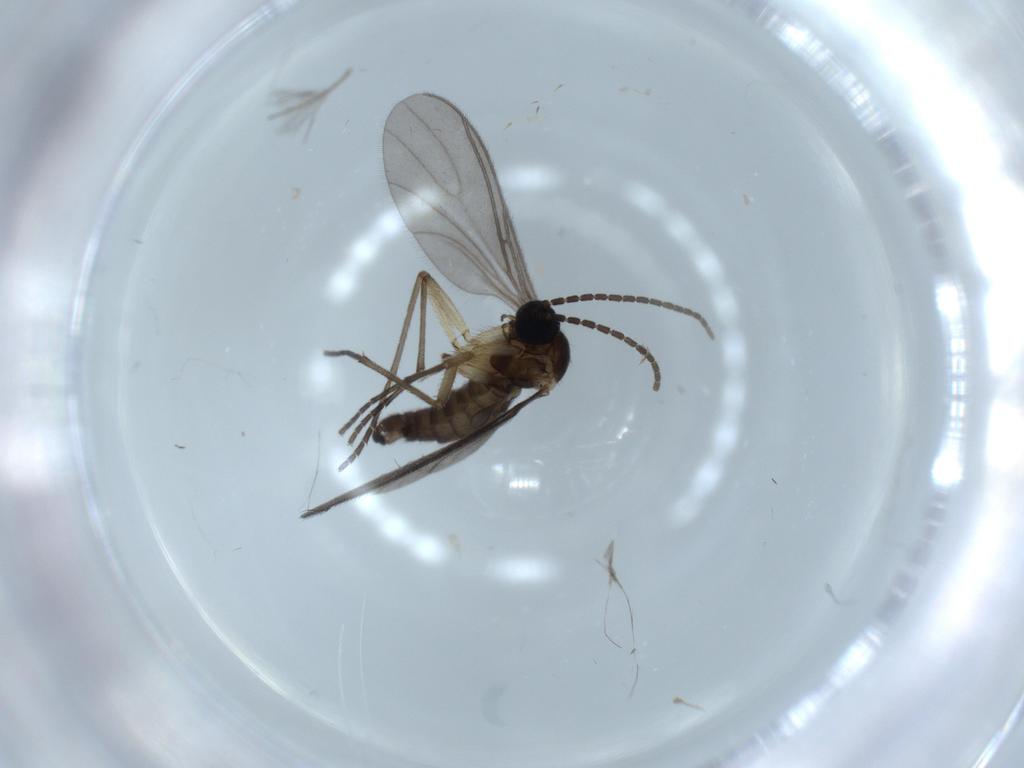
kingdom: Animalia
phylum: Arthropoda
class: Insecta
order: Diptera
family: Sciaridae
